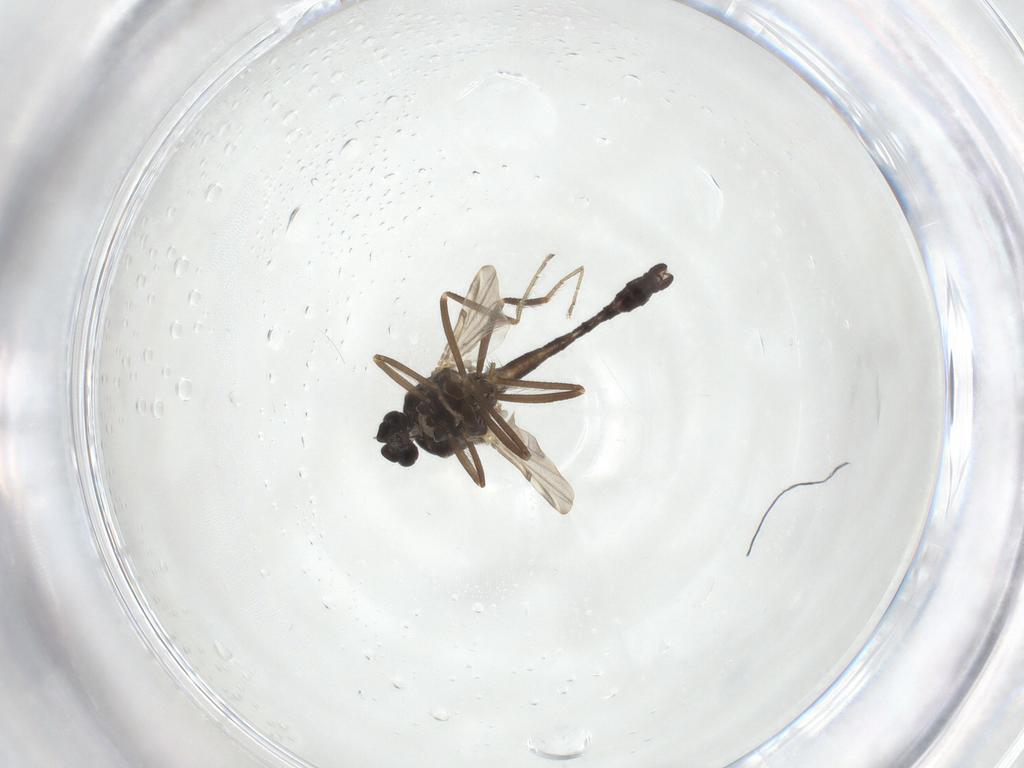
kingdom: Animalia
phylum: Arthropoda
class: Insecta
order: Diptera
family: Ceratopogonidae
